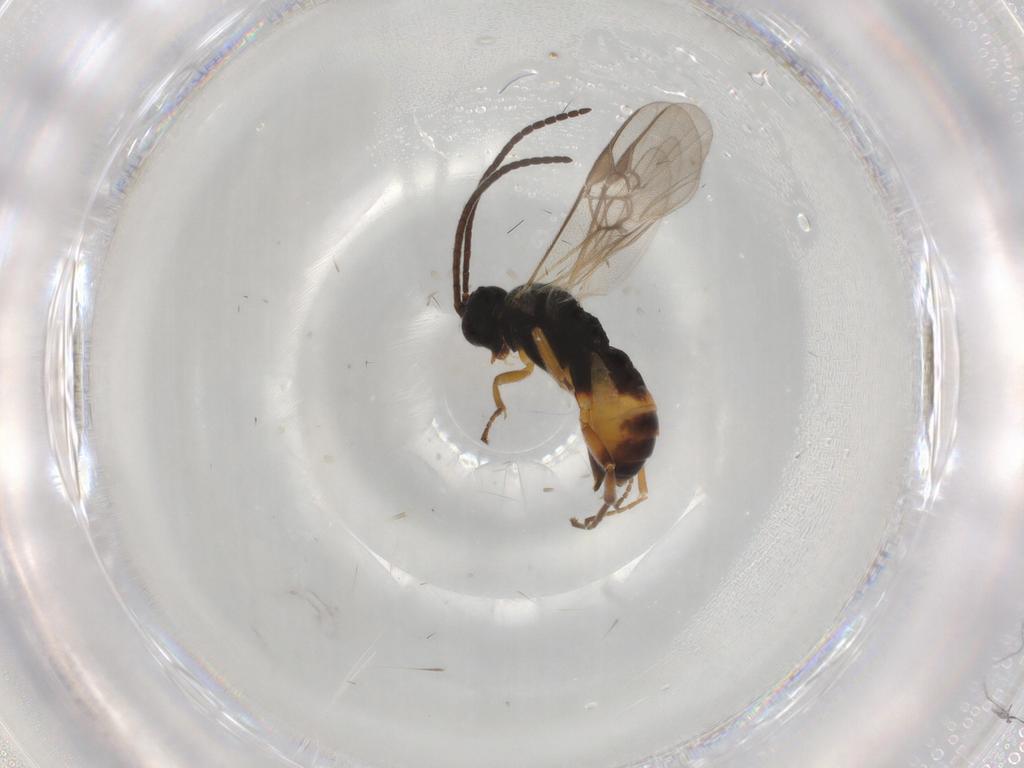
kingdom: Animalia
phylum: Arthropoda
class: Insecta
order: Hymenoptera
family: Braconidae
